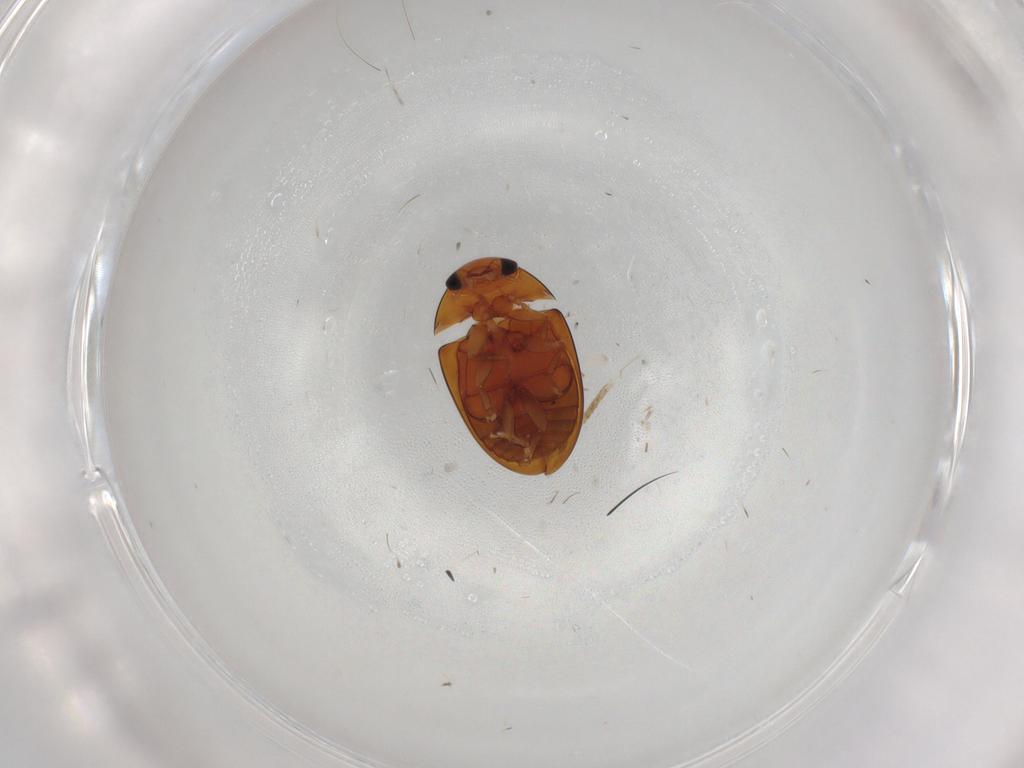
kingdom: Animalia
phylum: Arthropoda
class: Insecta
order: Coleoptera
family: Phalacridae
